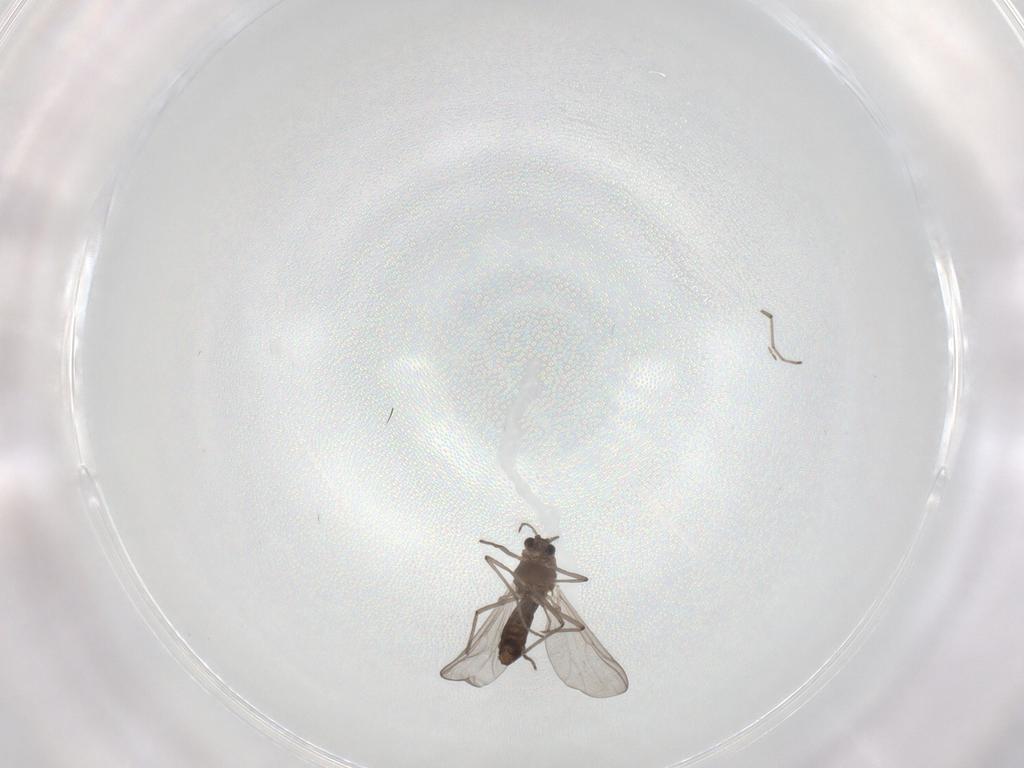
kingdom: Animalia
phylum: Arthropoda
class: Insecta
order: Diptera
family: Chironomidae
